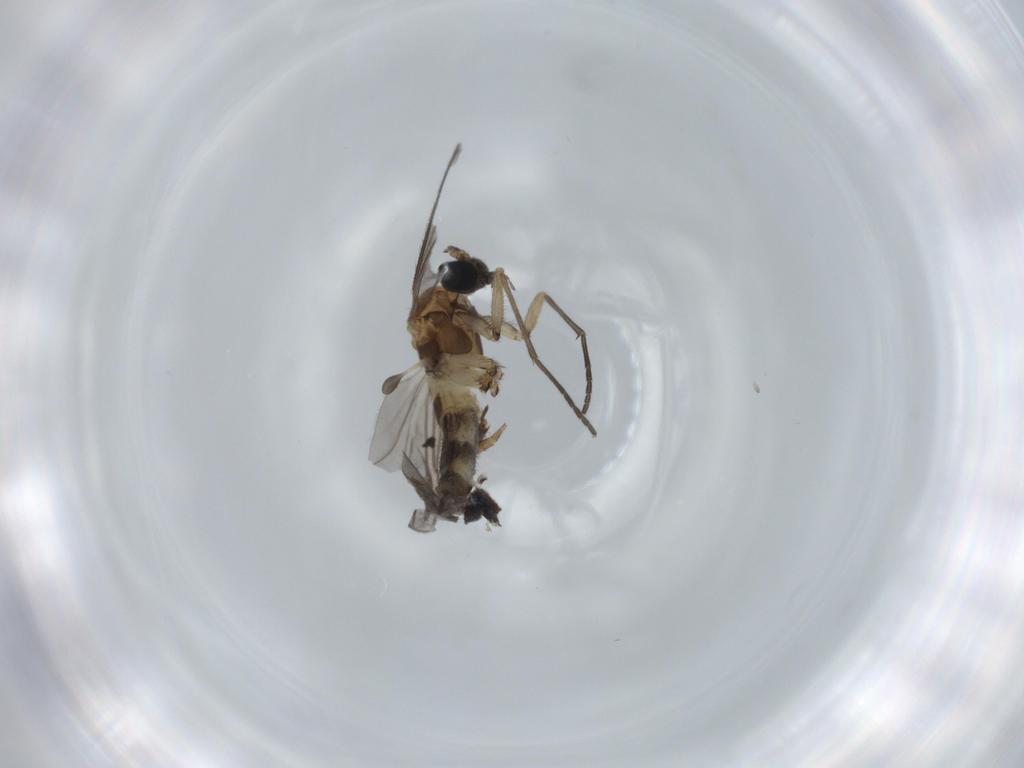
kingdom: Animalia
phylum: Arthropoda
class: Insecta
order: Diptera
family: Sciaridae
